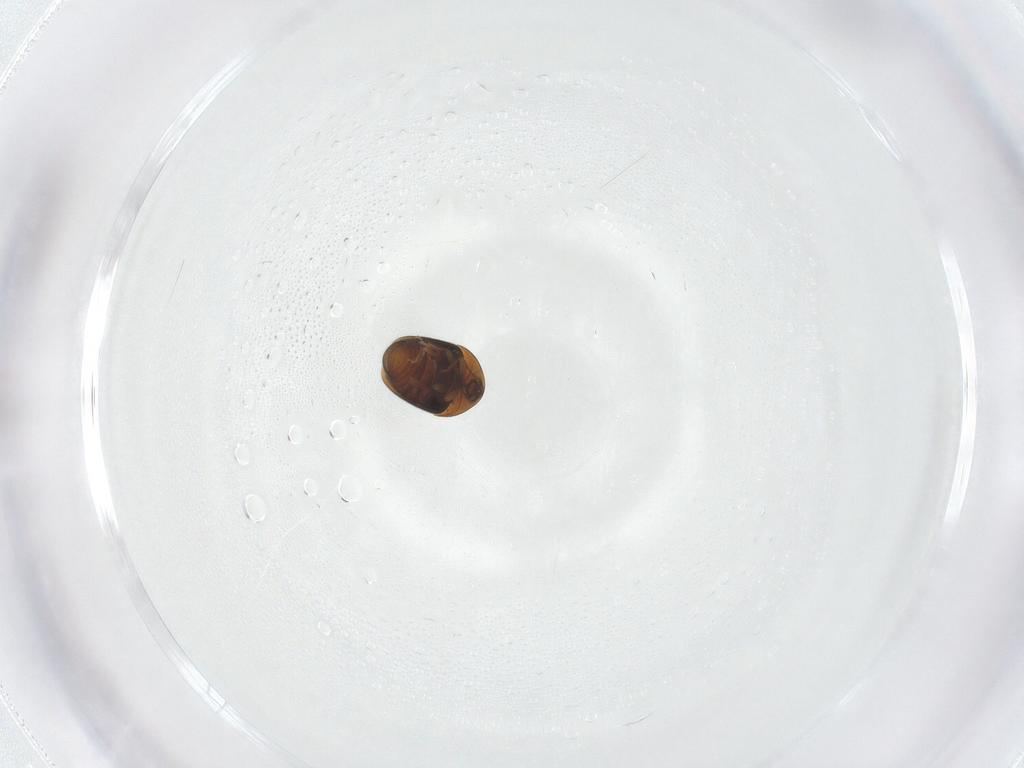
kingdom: Animalia
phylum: Arthropoda
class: Insecta
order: Coleoptera
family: Corylophidae
